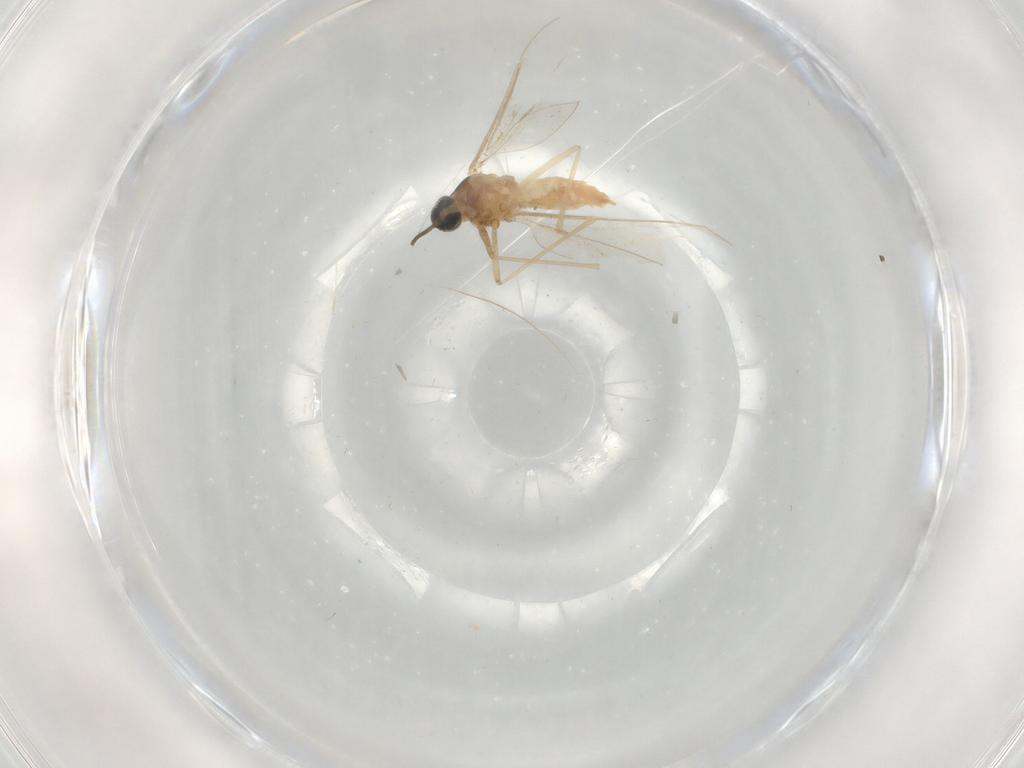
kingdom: Animalia
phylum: Arthropoda
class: Insecta
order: Diptera
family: Cecidomyiidae
